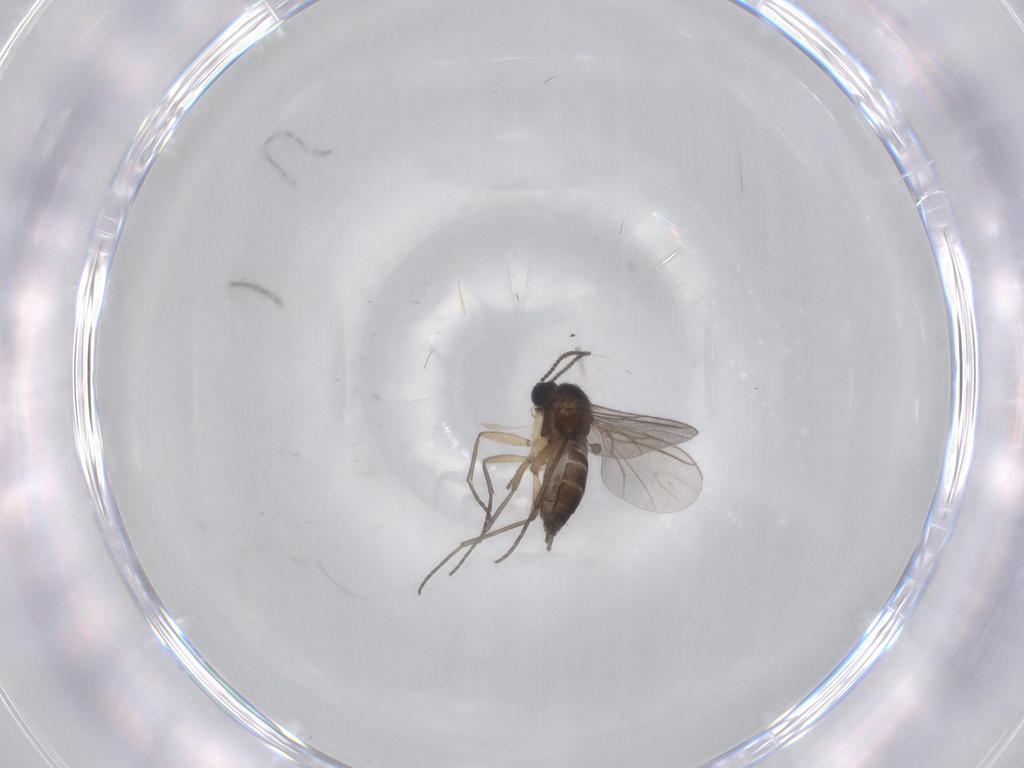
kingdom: Animalia
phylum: Arthropoda
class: Insecta
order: Diptera
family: Sciaridae
